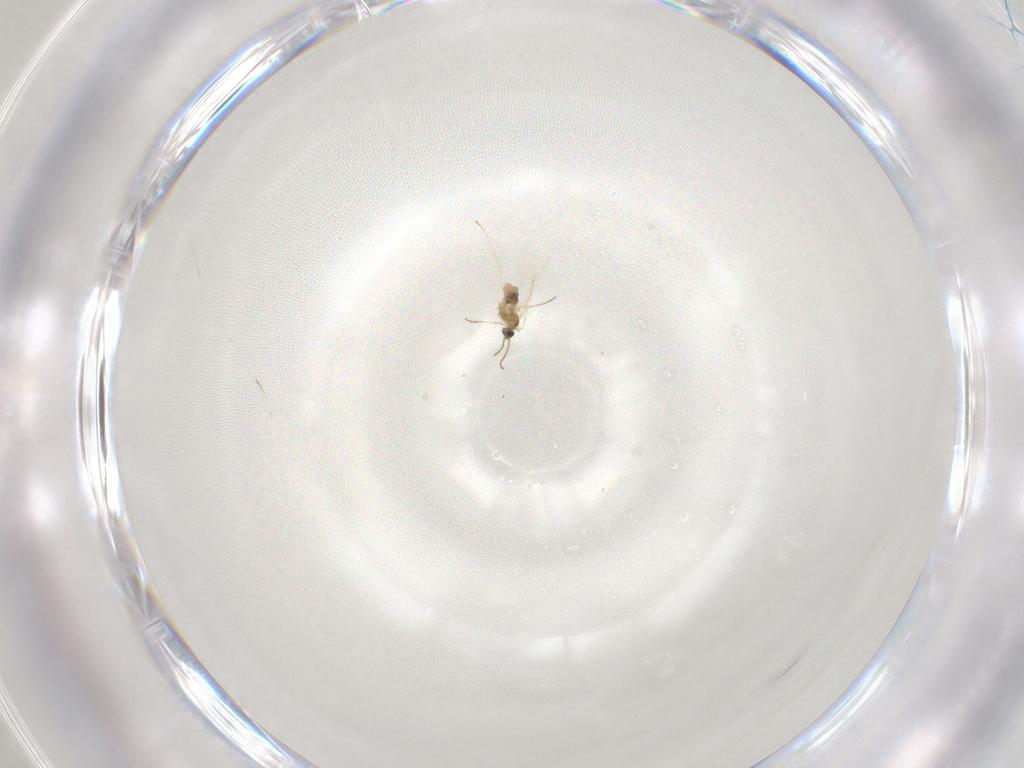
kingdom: Animalia
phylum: Arthropoda
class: Insecta
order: Diptera
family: Cecidomyiidae
